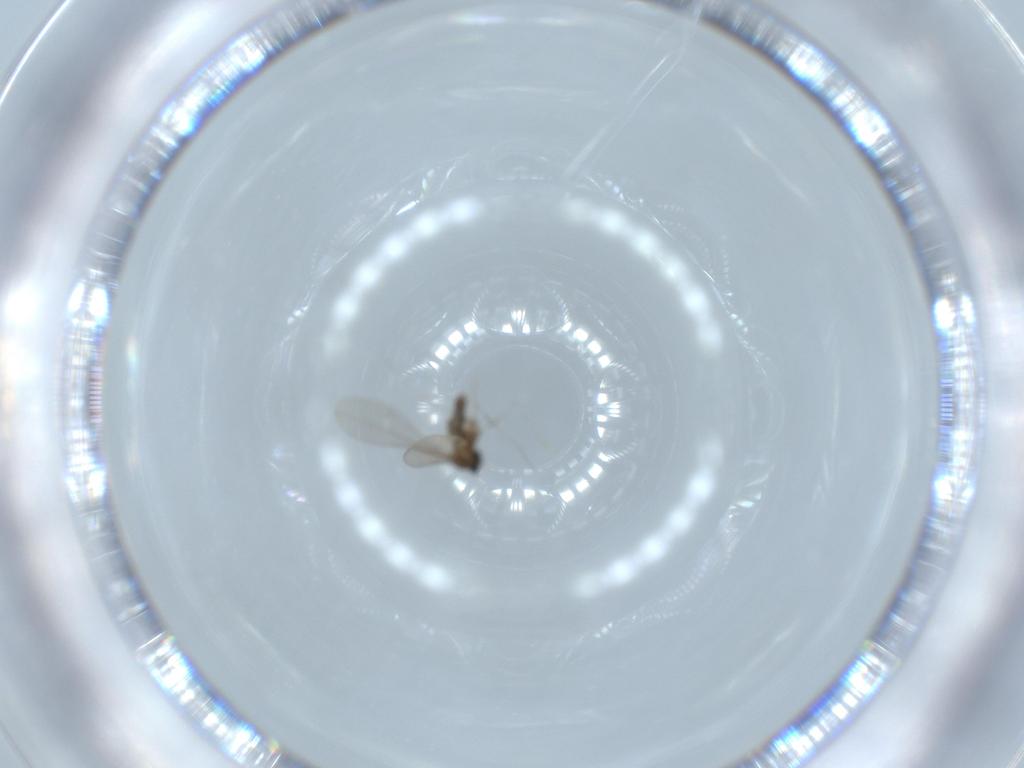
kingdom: Animalia
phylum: Arthropoda
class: Insecta
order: Diptera
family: Cecidomyiidae
